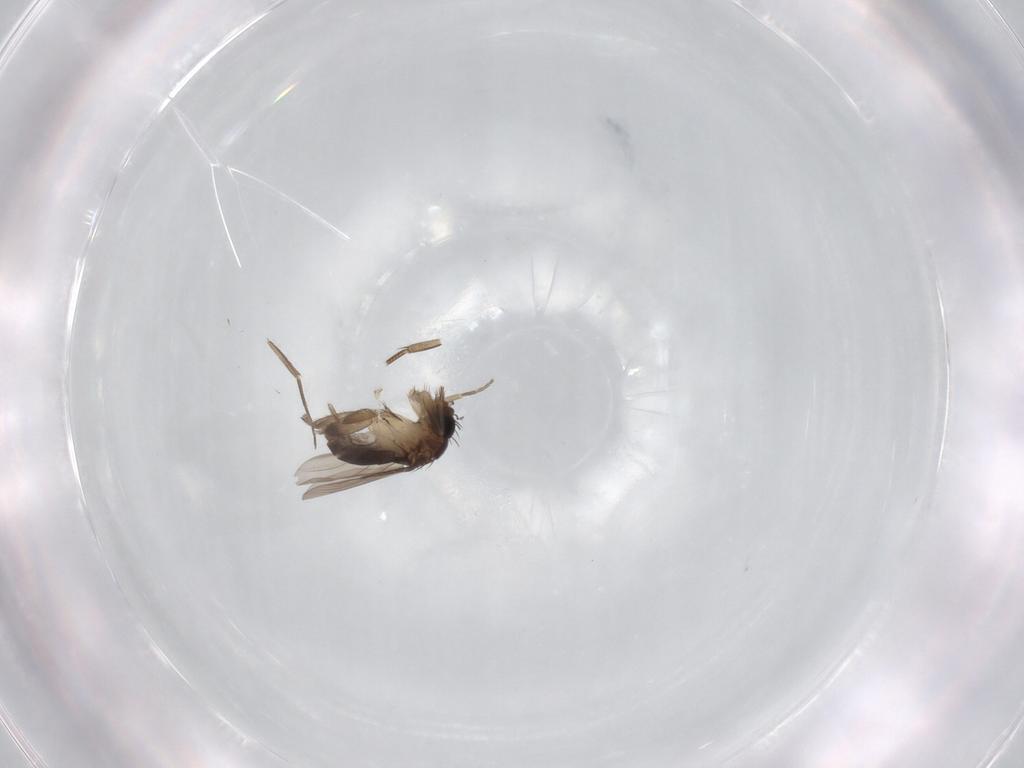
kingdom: Animalia
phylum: Arthropoda
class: Insecta
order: Diptera
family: Phoridae
